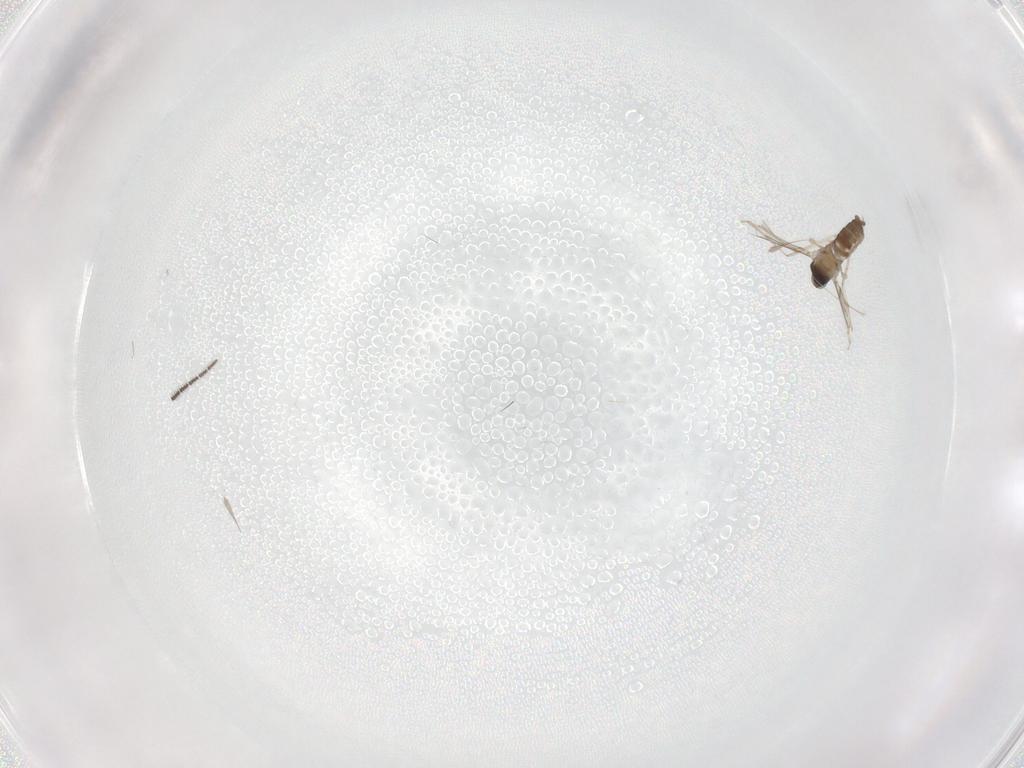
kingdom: Animalia
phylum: Arthropoda
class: Insecta
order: Diptera
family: Cecidomyiidae
